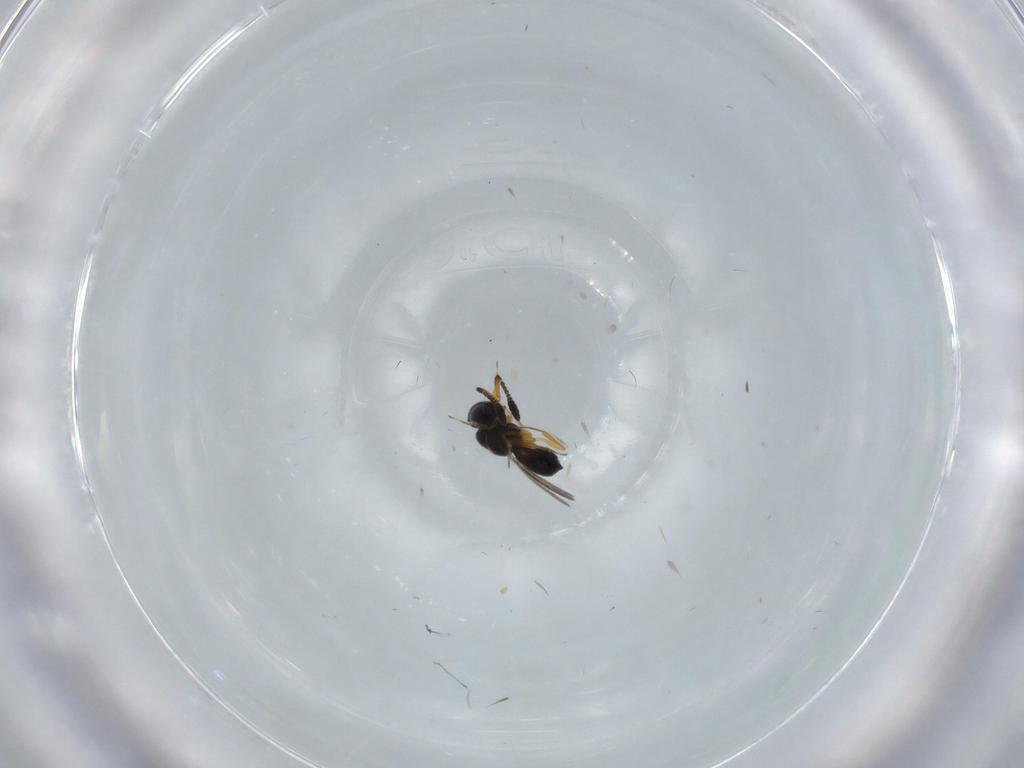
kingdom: Animalia
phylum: Arthropoda
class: Insecta
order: Hymenoptera
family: Scelionidae
